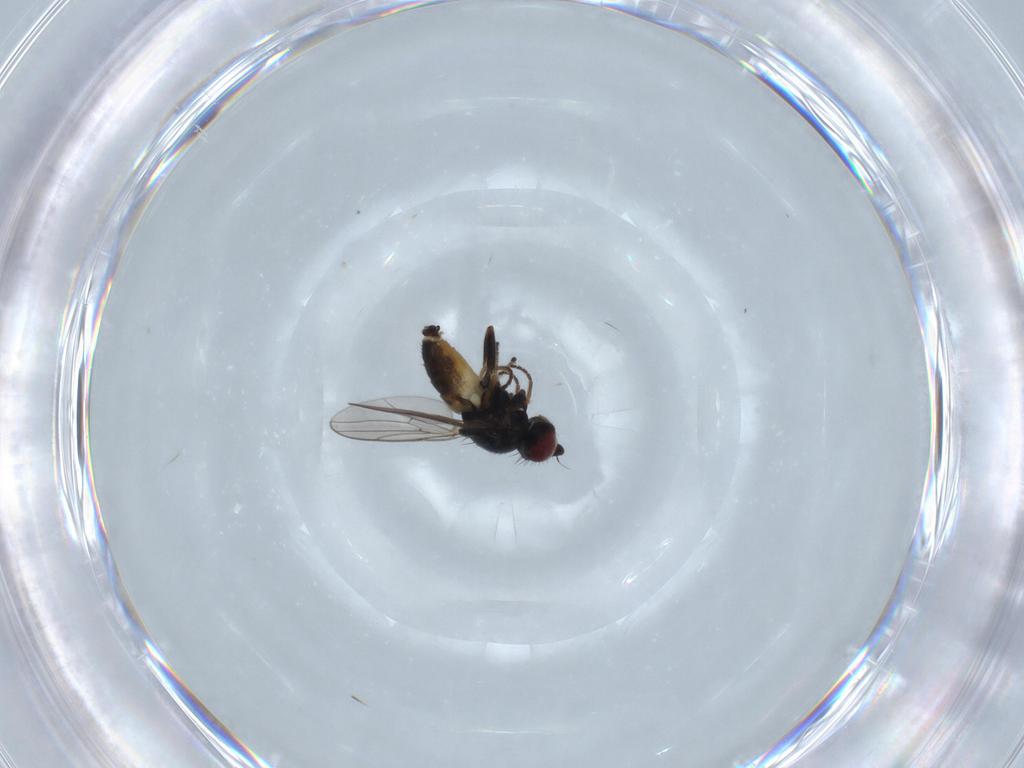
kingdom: Animalia
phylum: Arthropoda
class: Insecta
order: Diptera
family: Chloropidae
